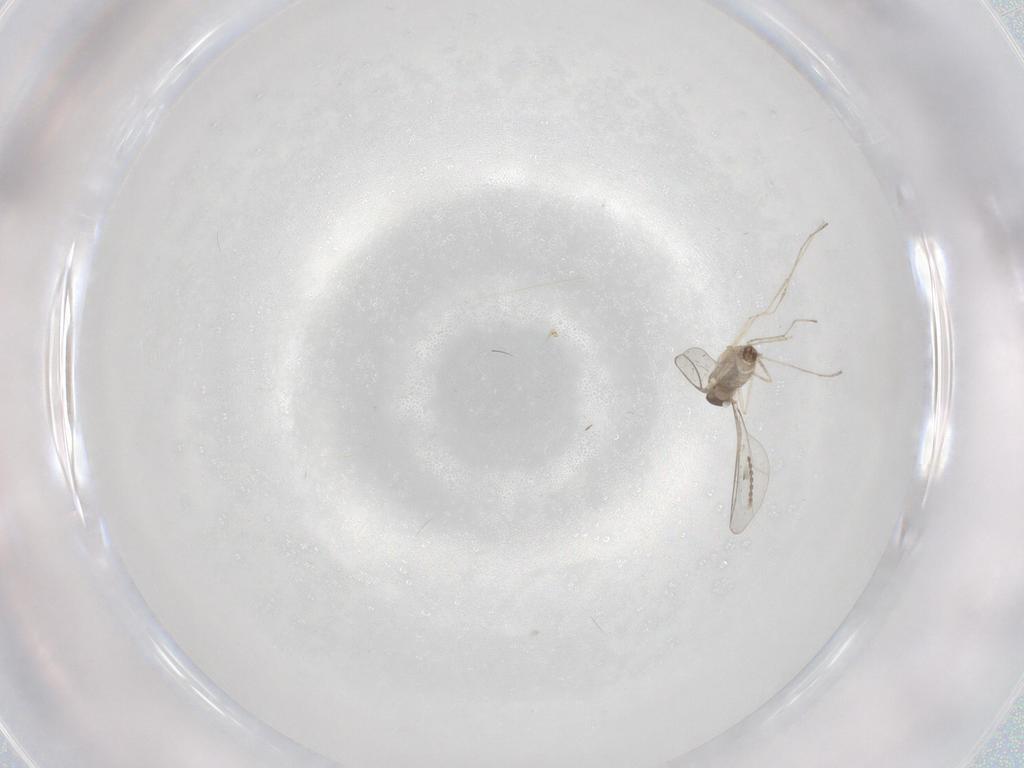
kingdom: Animalia
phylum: Arthropoda
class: Insecta
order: Diptera
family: Cecidomyiidae
